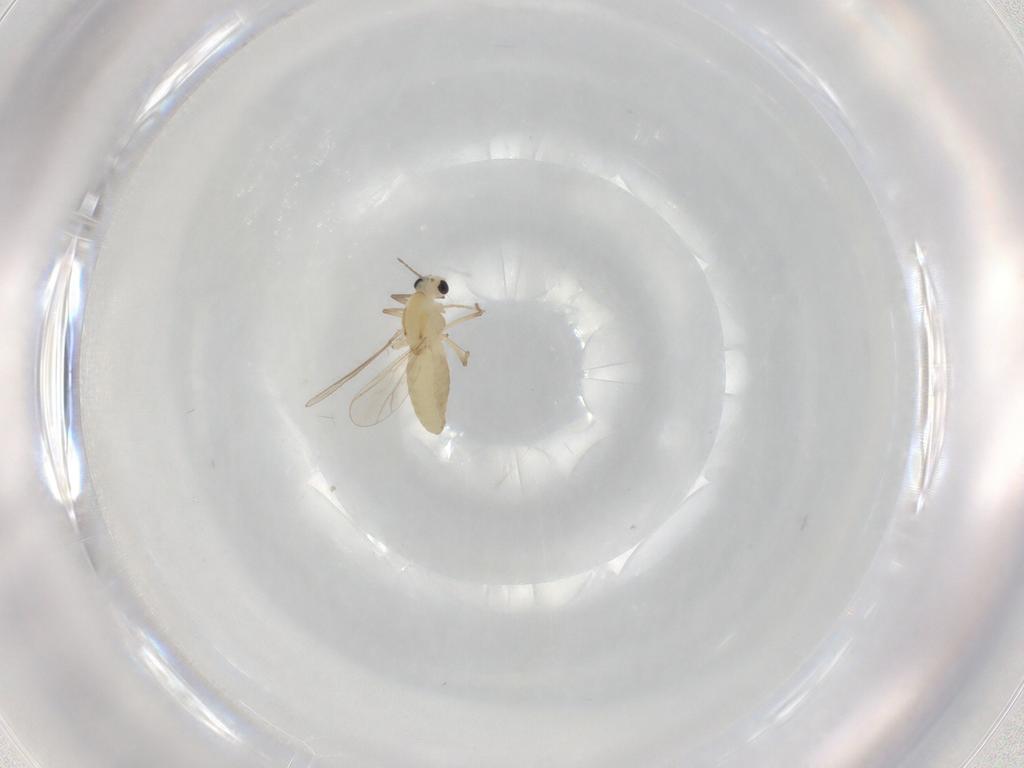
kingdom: Animalia
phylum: Arthropoda
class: Insecta
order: Diptera
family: Chironomidae
